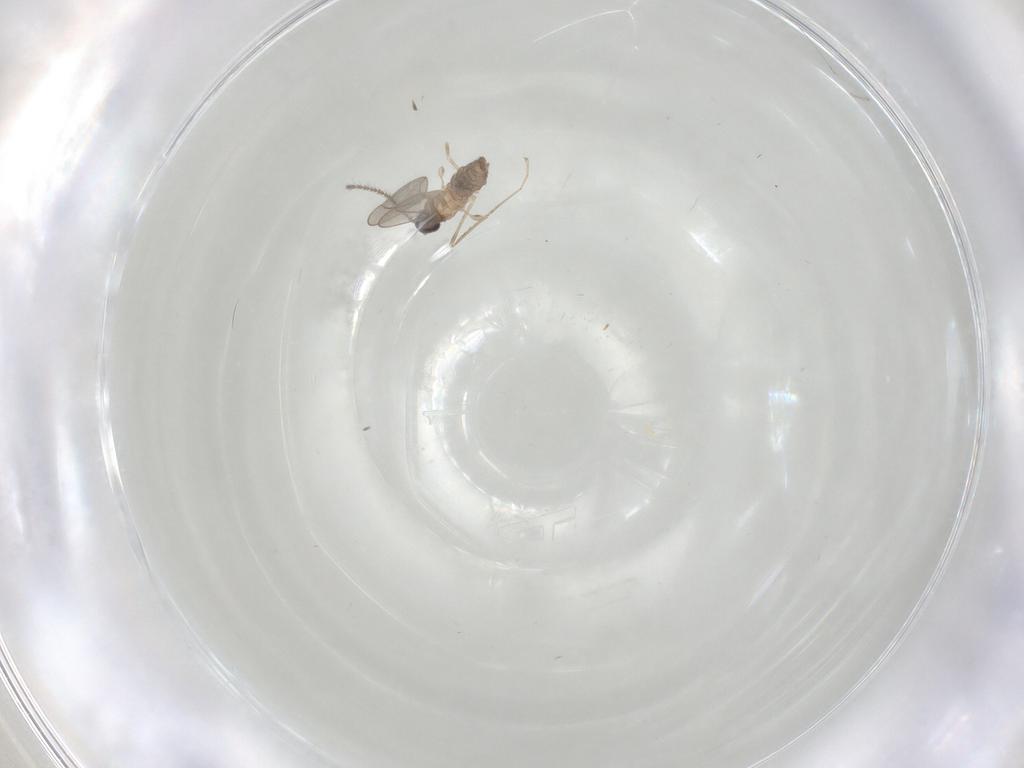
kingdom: Animalia
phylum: Arthropoda
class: Insecta
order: Diptera
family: Cecidomyiidae
